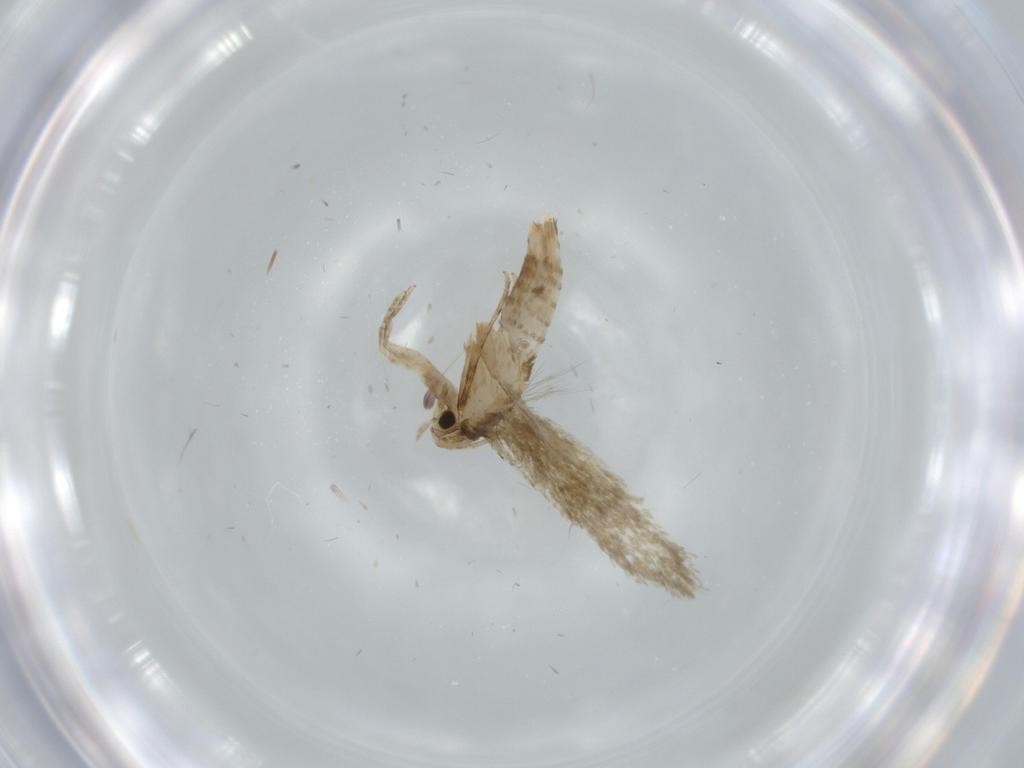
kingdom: Animalia
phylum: Arthropoda
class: Insecta
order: Lepidoptera
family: Tineidae
